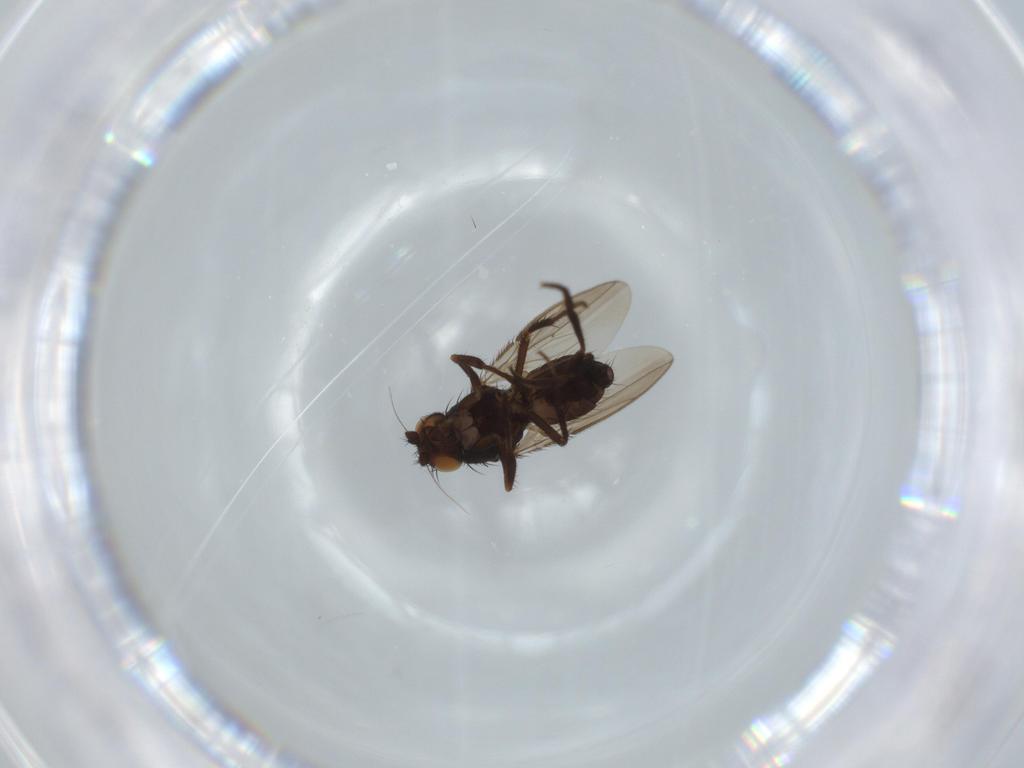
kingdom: Animalia
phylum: Arthropoda
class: Insecta
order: Diptera
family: Sphaeroceridae
